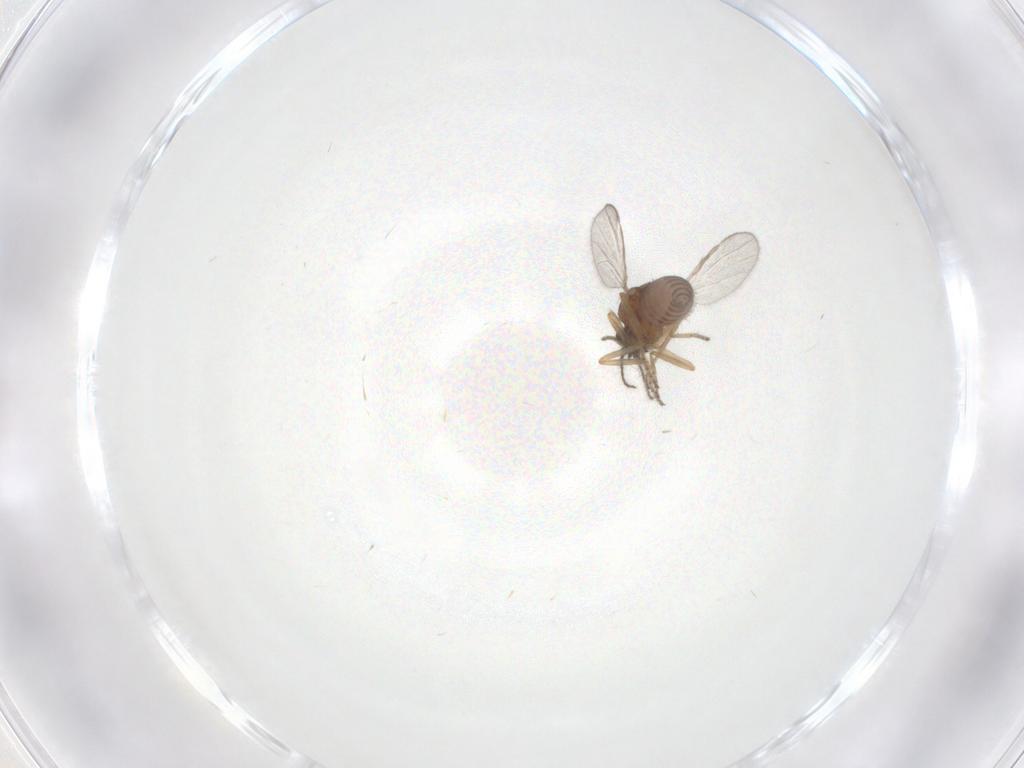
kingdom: Animalia
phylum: Arthropoda
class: Insecta
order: Diptera
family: Ceratopogonidae
